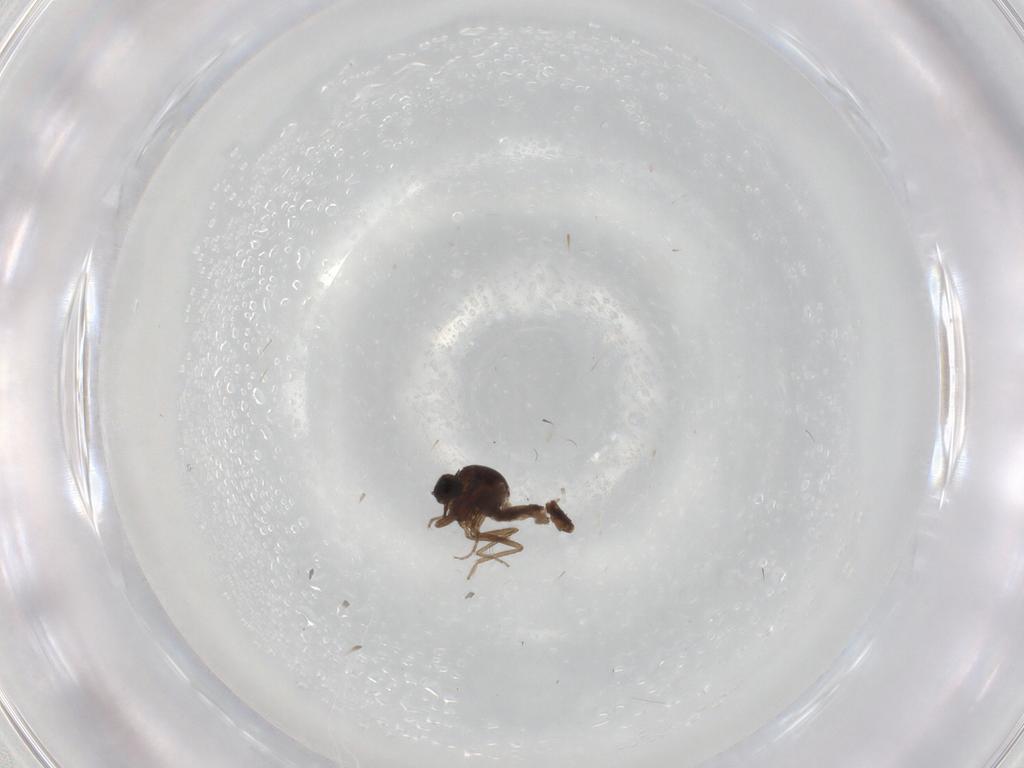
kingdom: Animalia
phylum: Arthropoda
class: Insecta
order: Diptera
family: Ceratopogonidae
